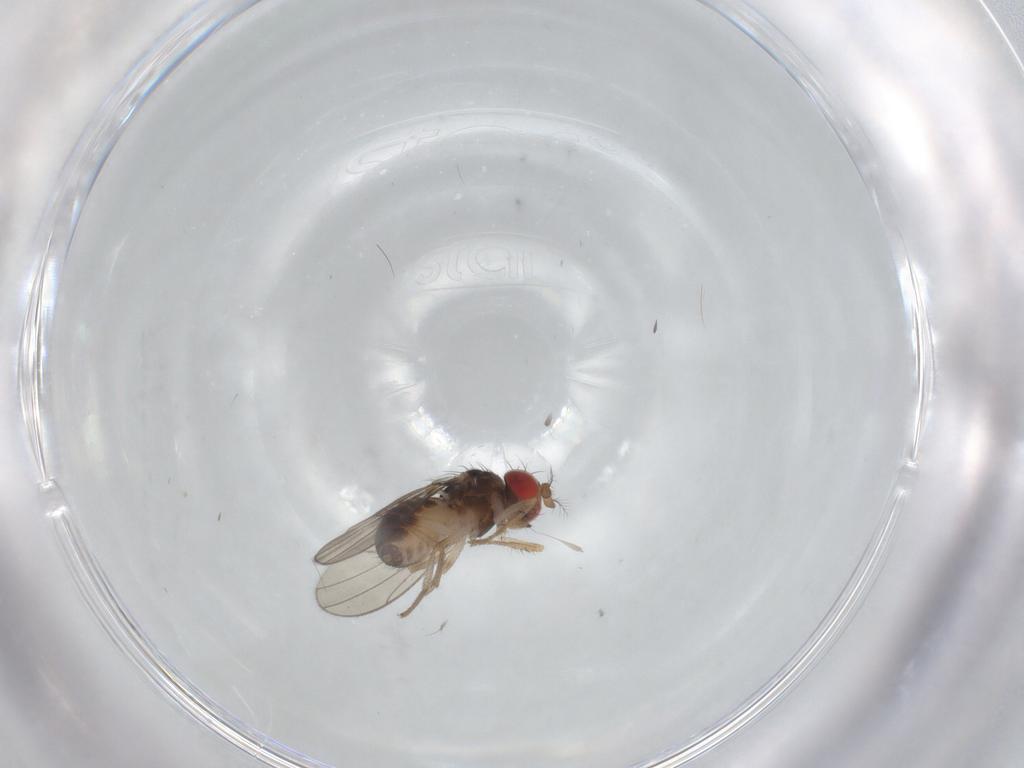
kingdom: Animalia
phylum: Arthropoda
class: Insecta
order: Diptera
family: Drosophilidae
